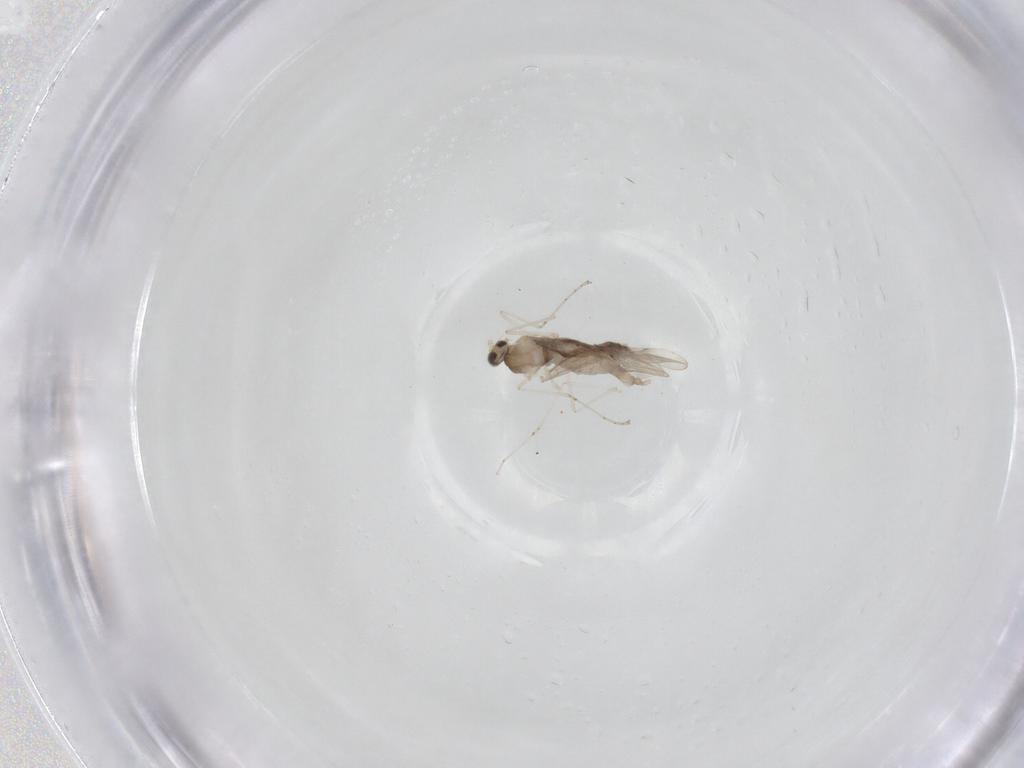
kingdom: Animalia
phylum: Arthropoda
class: Insecta
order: Diptera
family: Cecidomyiidae
